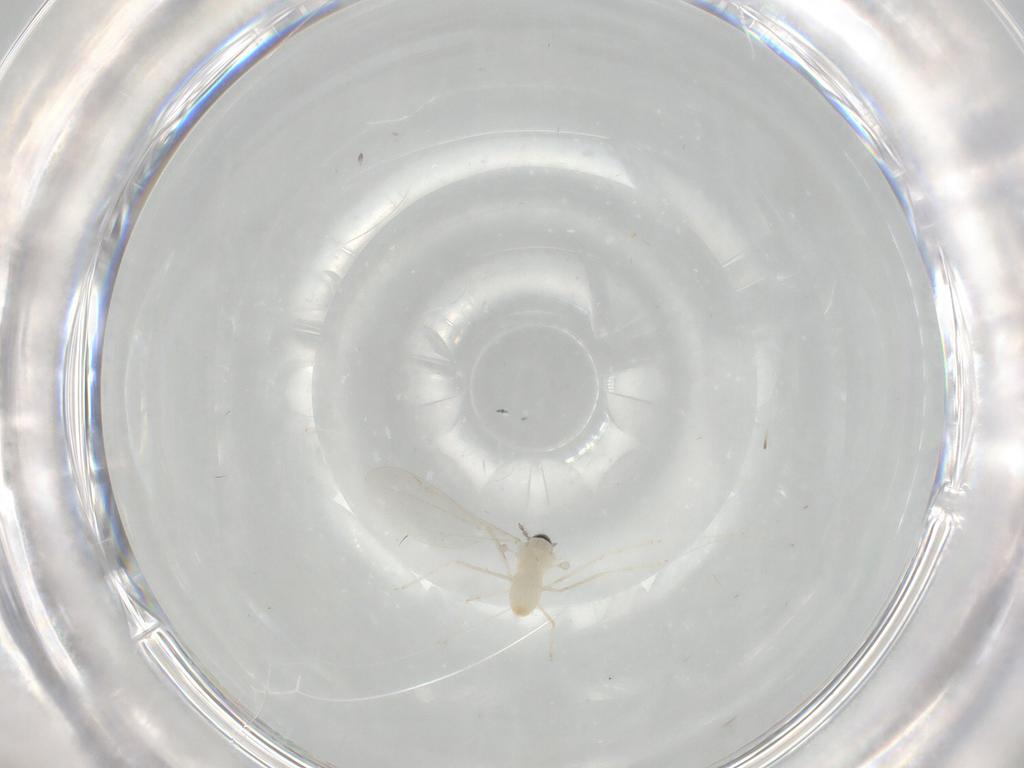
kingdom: Animalia
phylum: Arthropoda
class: Insecta
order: Diptera
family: Cecidomyiidae
